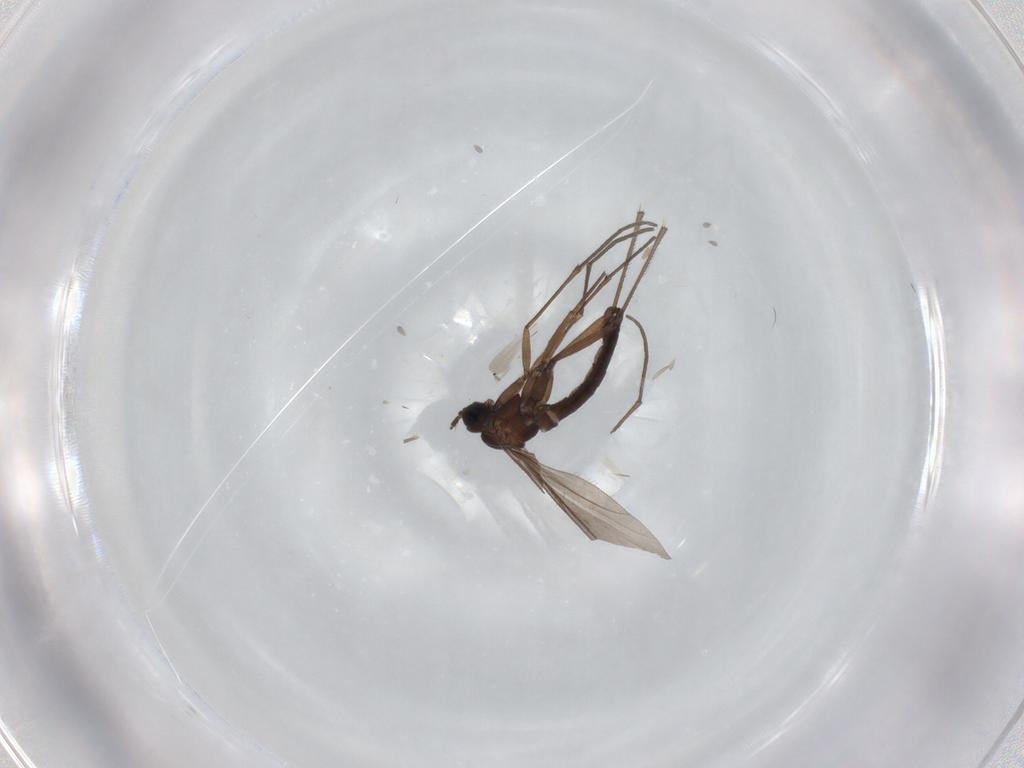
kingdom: Animalia
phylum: Arthropoda
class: Insecta
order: Diptera
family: Sciaridae
